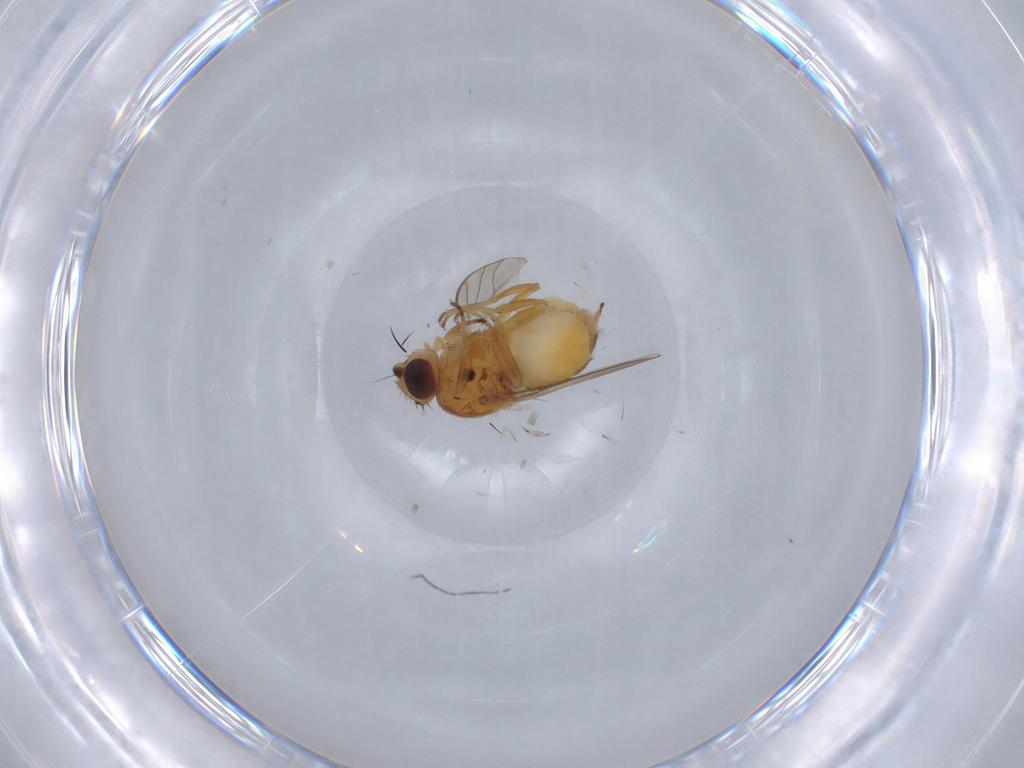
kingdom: Animalia
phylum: Arthropoda
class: Insecta
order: Diptera
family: Chloropidae
